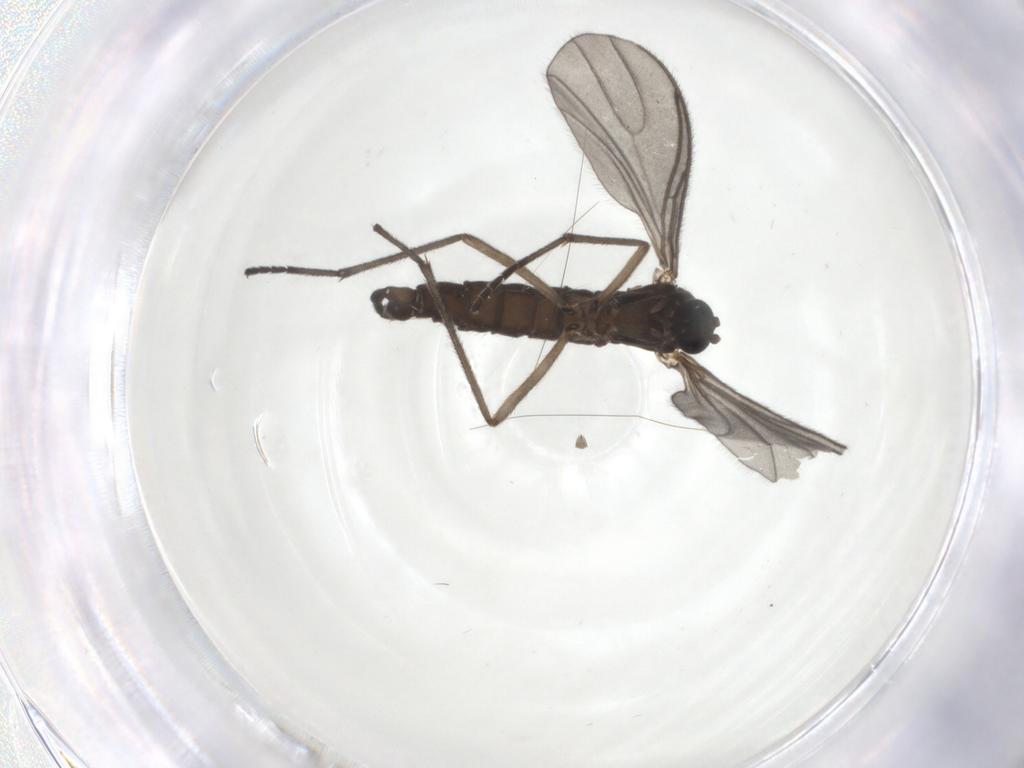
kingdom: Animalia
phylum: Arthropoda
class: Insecta
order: Diptera
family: Sciaridae
